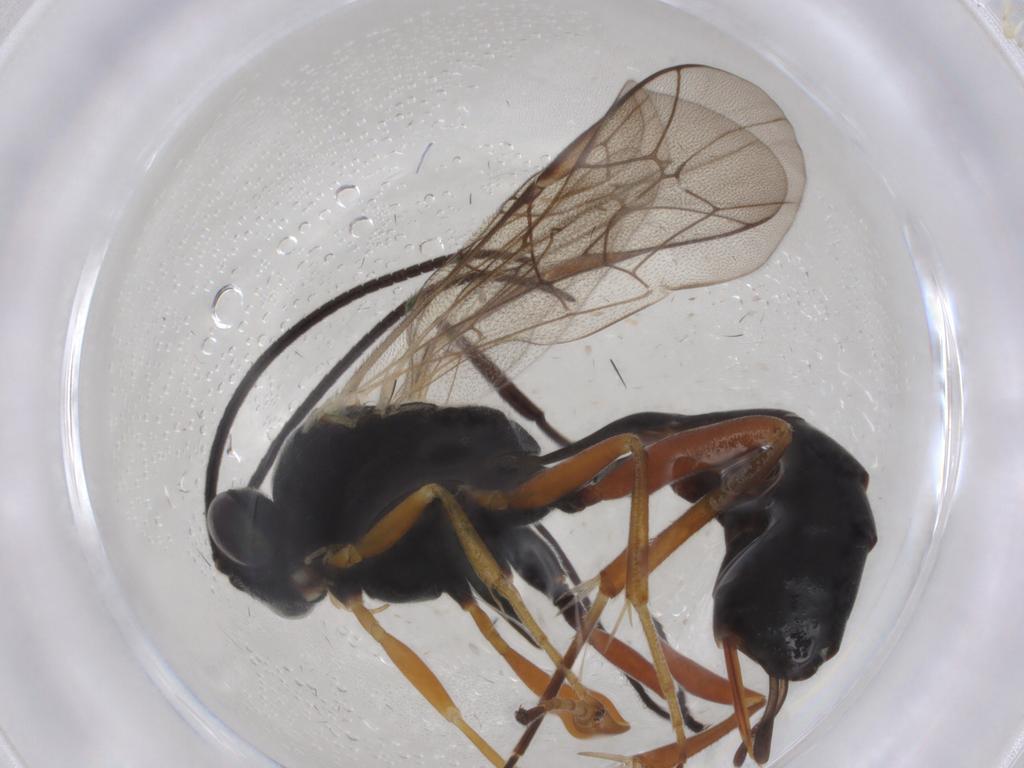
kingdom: Animalia
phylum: Arthropoda
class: Insecta
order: Hymenoptera
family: Ichneumonidae
